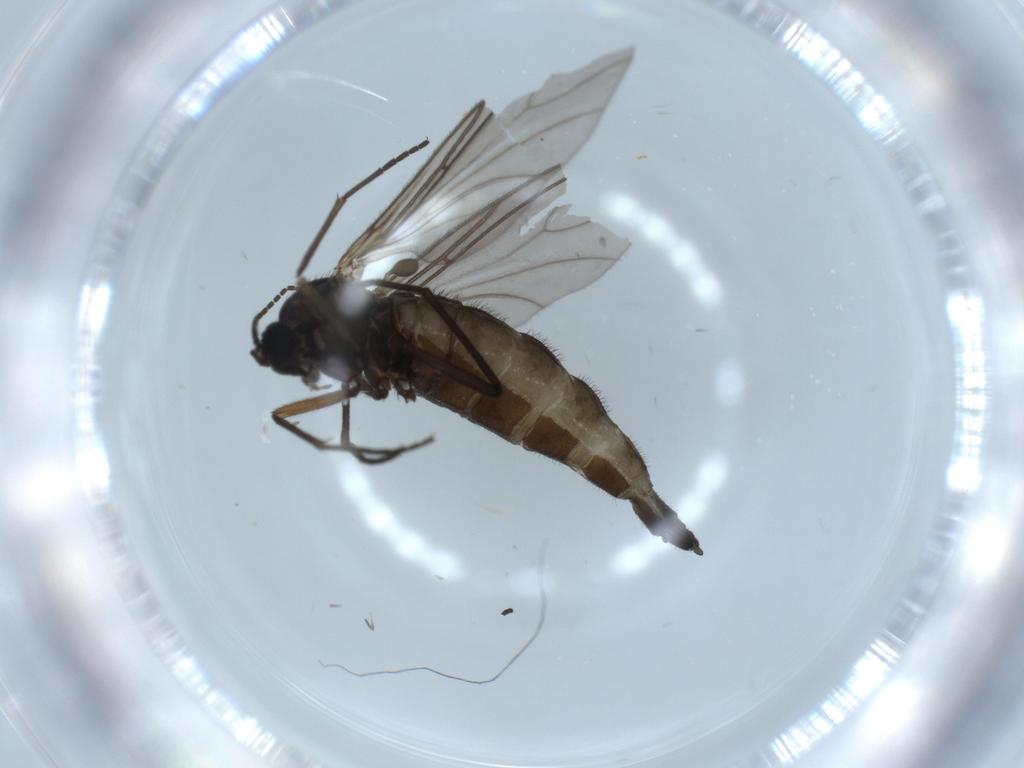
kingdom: Animalia
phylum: Arthropoda
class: Insecta
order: Diptera
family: Sciaridae
